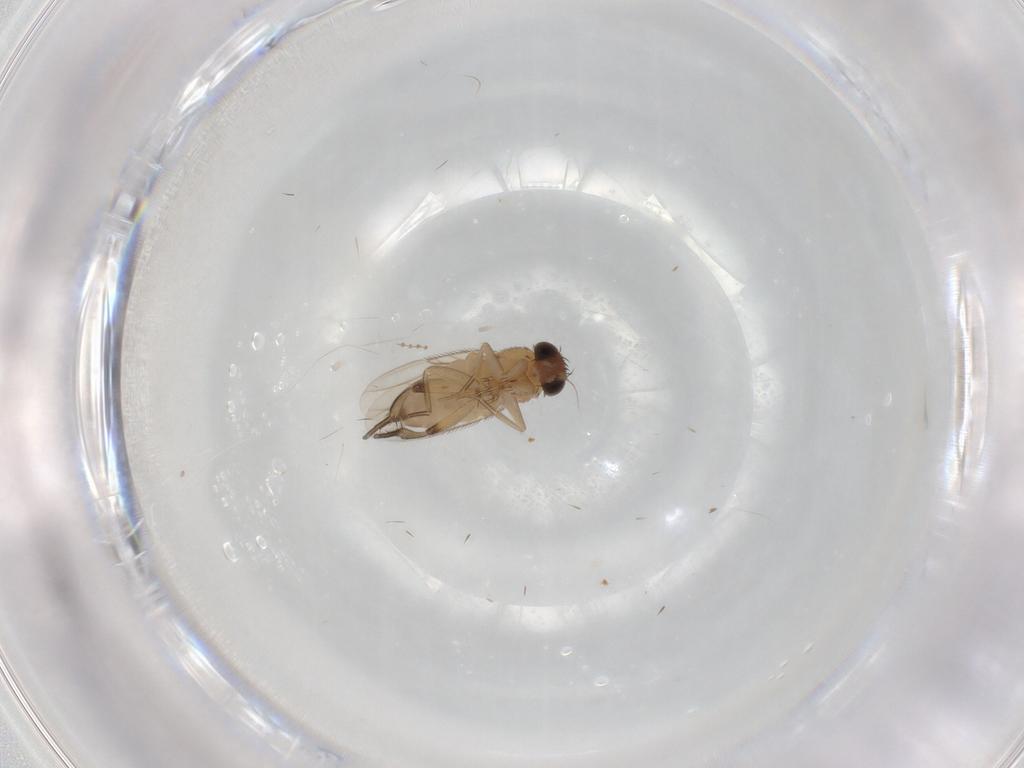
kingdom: Animalia
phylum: Arthropoda
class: Insecta
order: Diptera
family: Phoridae
